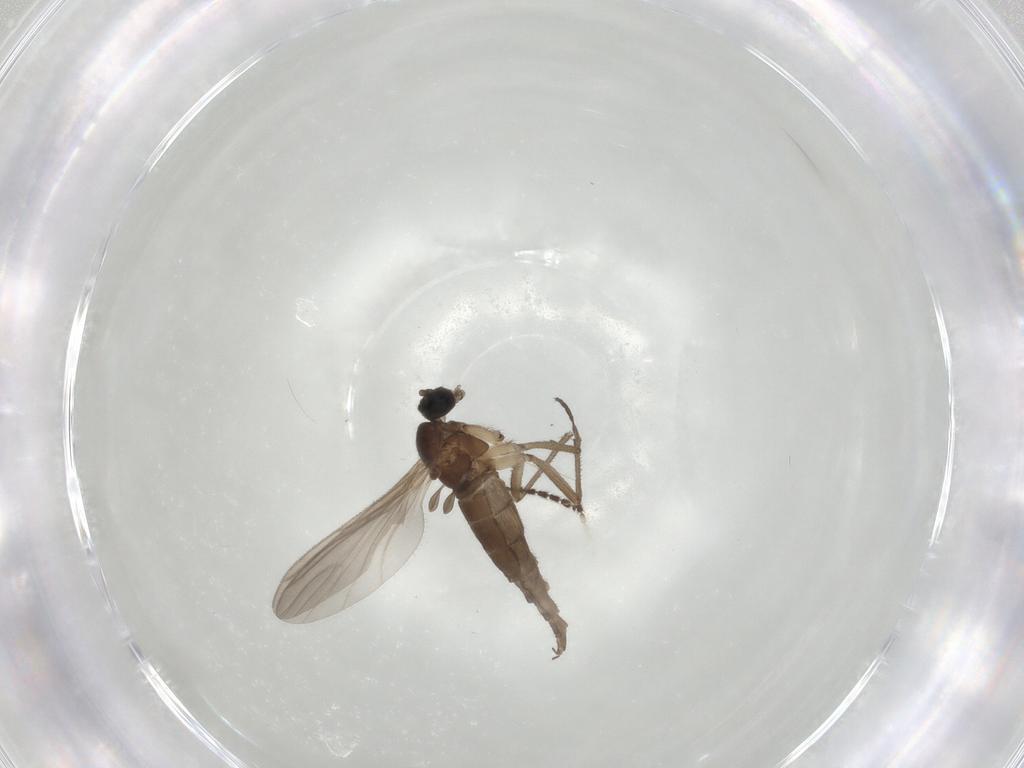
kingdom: Animalia
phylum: Arthropoda
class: Insecta
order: Diptera
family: Sciaridae
